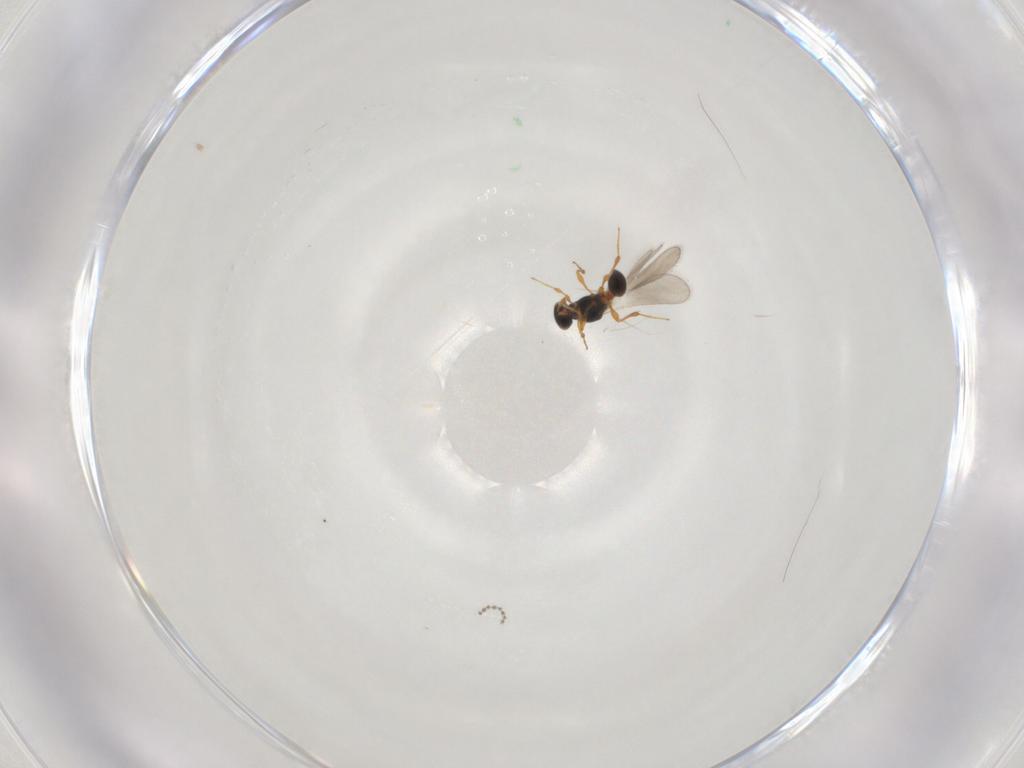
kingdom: Animalia
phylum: Arthropoda
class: Insecta
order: Hymenoptera
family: Platygastridae
